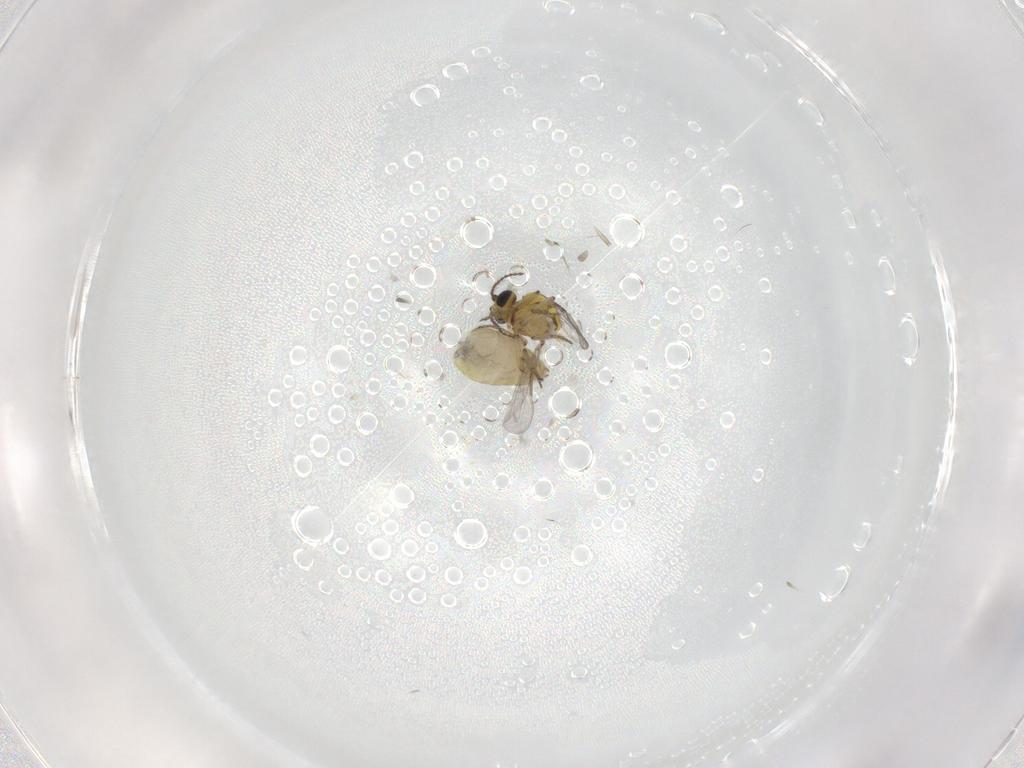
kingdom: Animalia
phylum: Arthropoda
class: Insecta
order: Diptera
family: Ceratopogonidae
